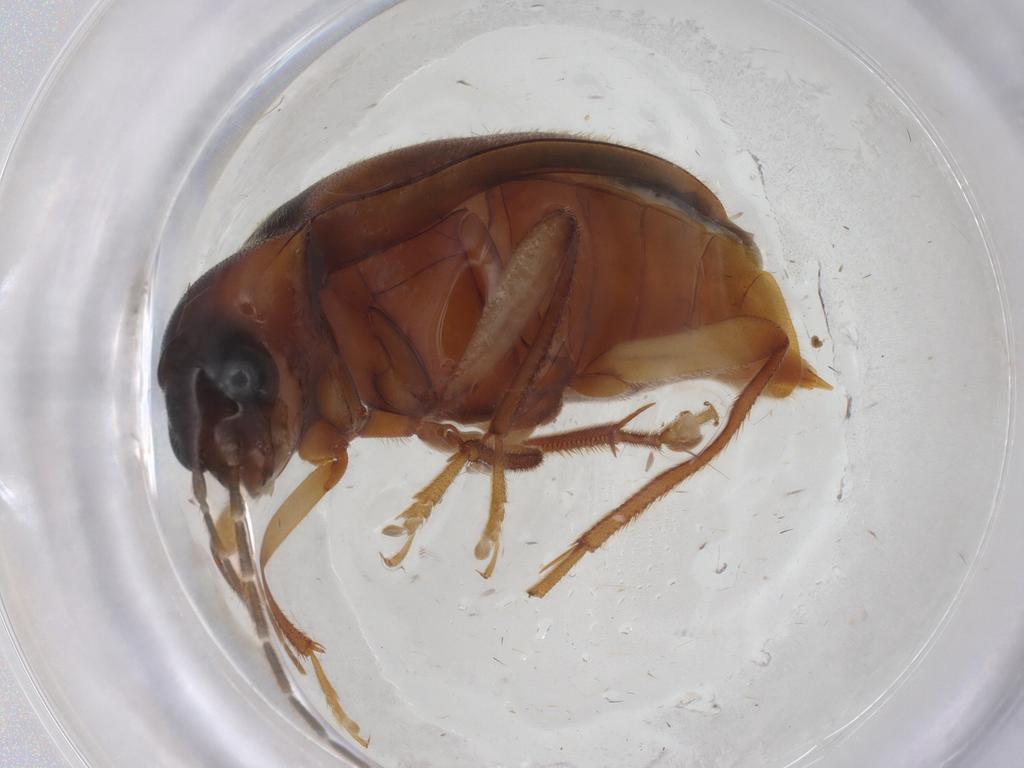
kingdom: Animalia
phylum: Arthropoda
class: Insecta
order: Coleoptera
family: Ptilodactylidae
